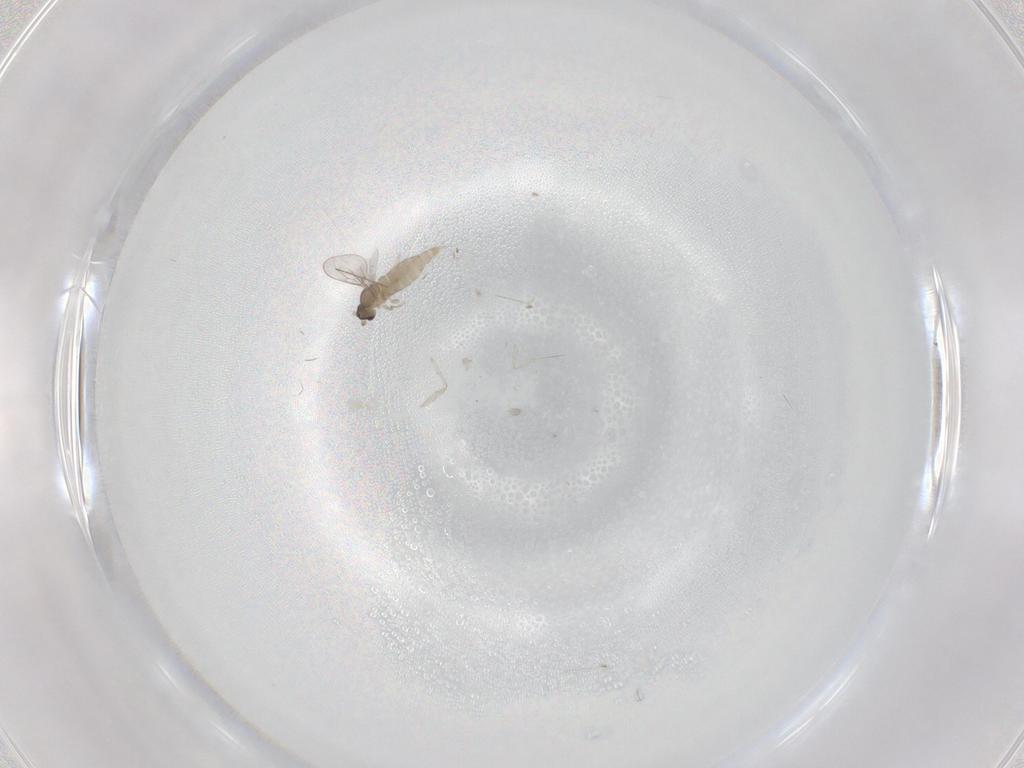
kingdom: Animalia
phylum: Arthropoda
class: Insecta
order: Diptera
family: Cecidomyiidae
